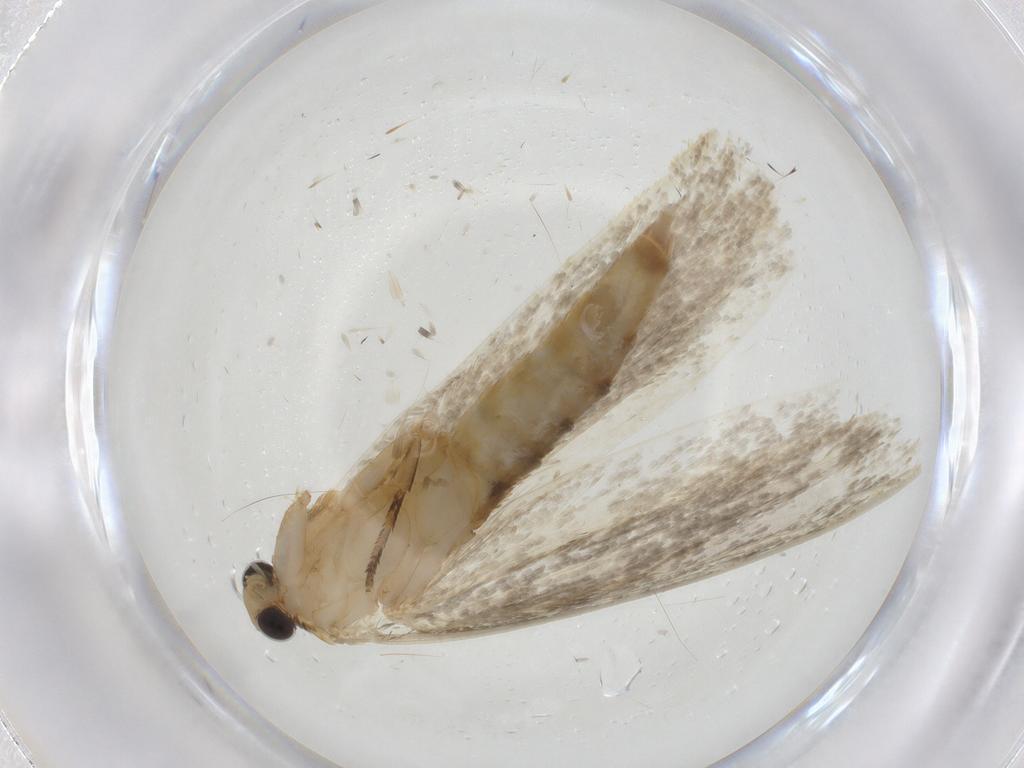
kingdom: Animalia
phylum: Arthropoda
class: Insecta
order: Lepidoptera
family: Tineidae
